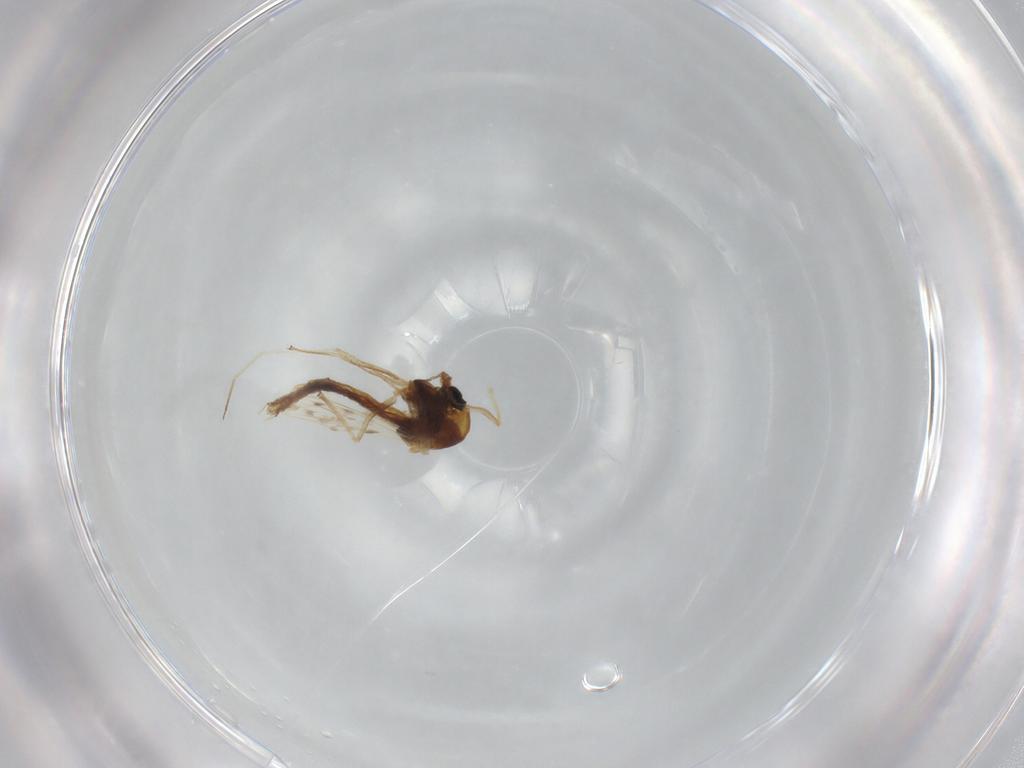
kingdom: Animalia
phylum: Arthropoda
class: Insecta
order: Diptera
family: Chironomidae
